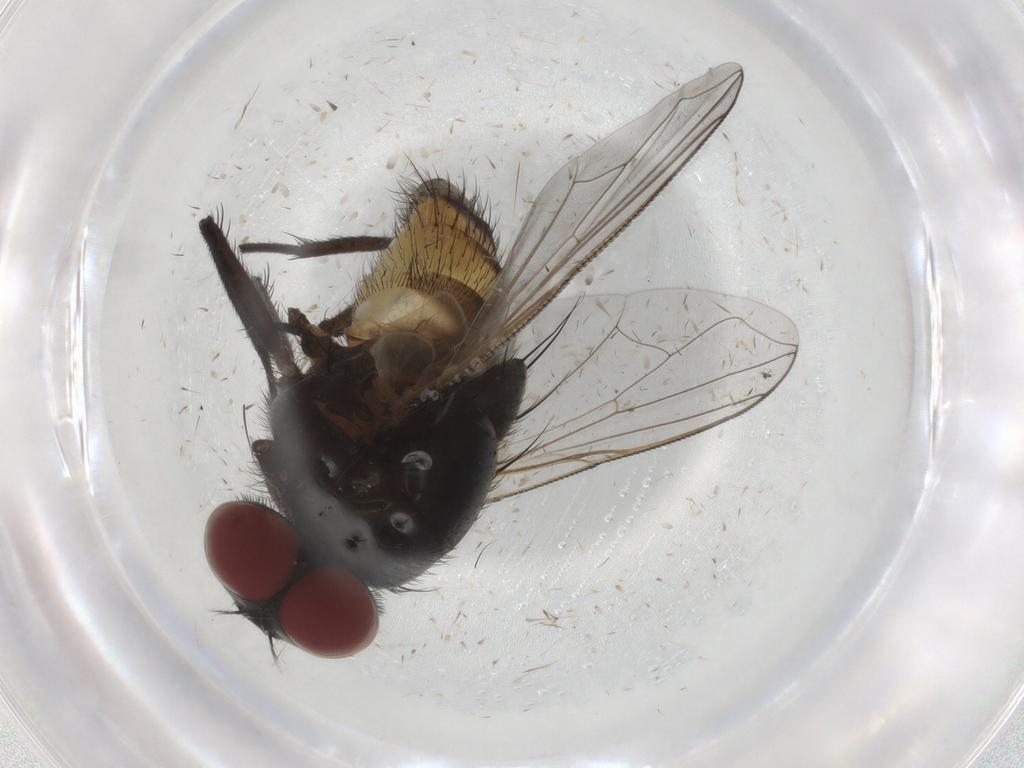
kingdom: Animalia
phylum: Arthropoda
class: Insecta
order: Diptera
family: Muscidae
